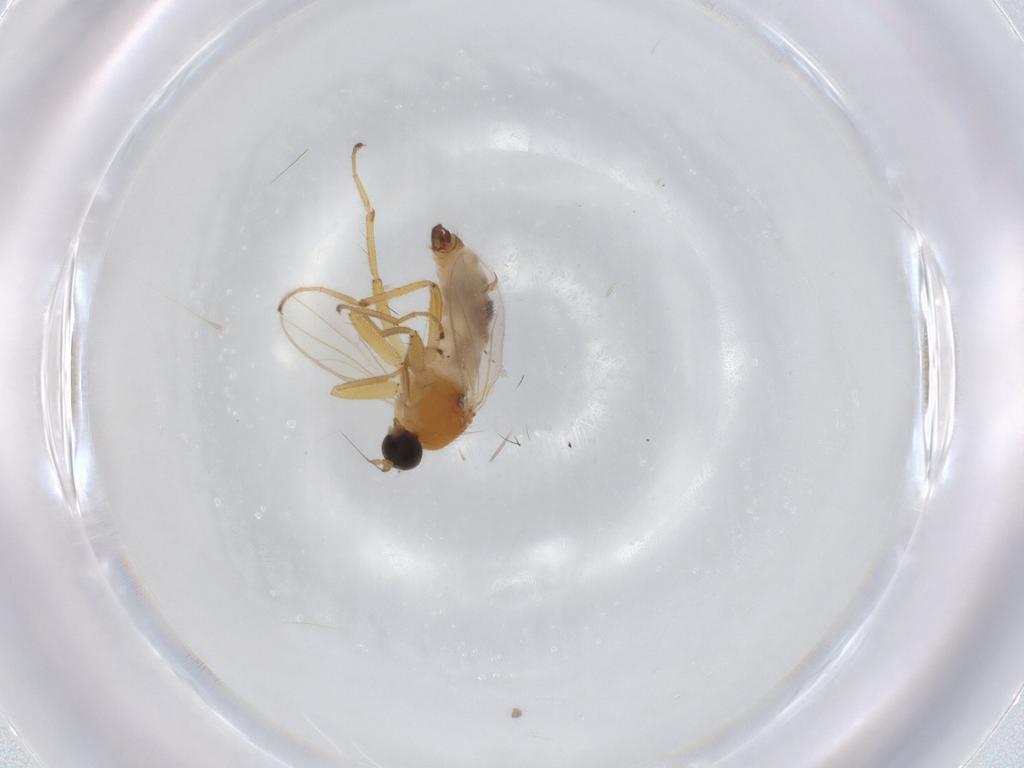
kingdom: Animalia
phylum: Arthropoda
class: Insecta
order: Diptera
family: Hybotidae
